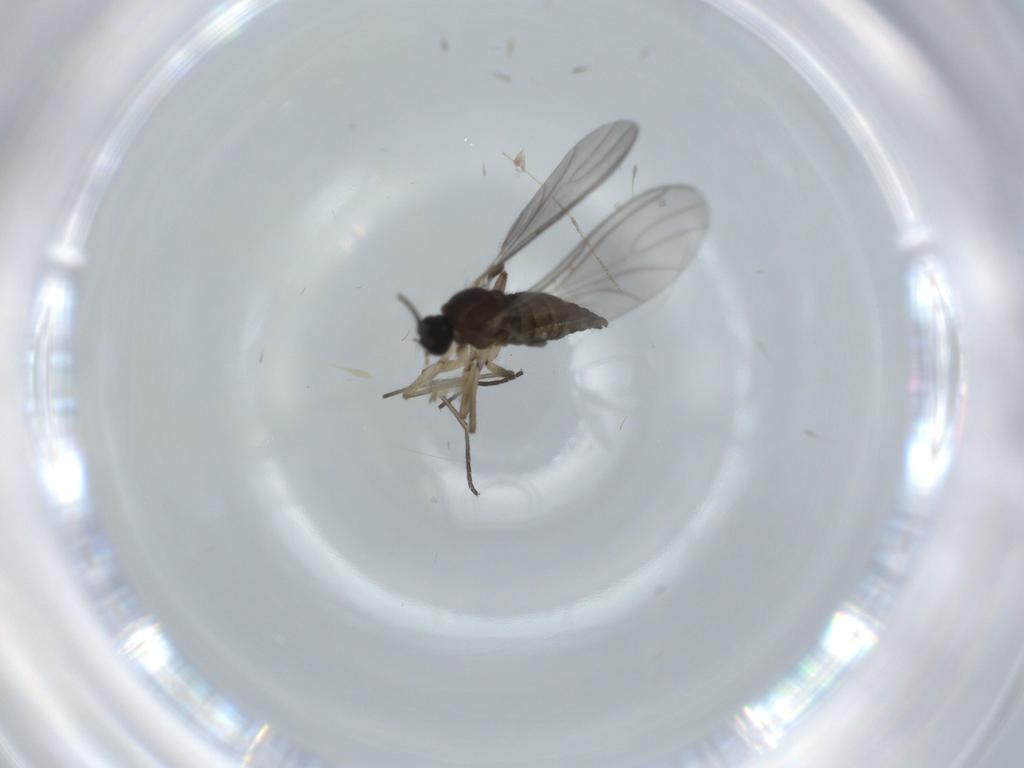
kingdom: Animalia
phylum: Arthropoda
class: Insecta
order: Diptera
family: Sciaridae
